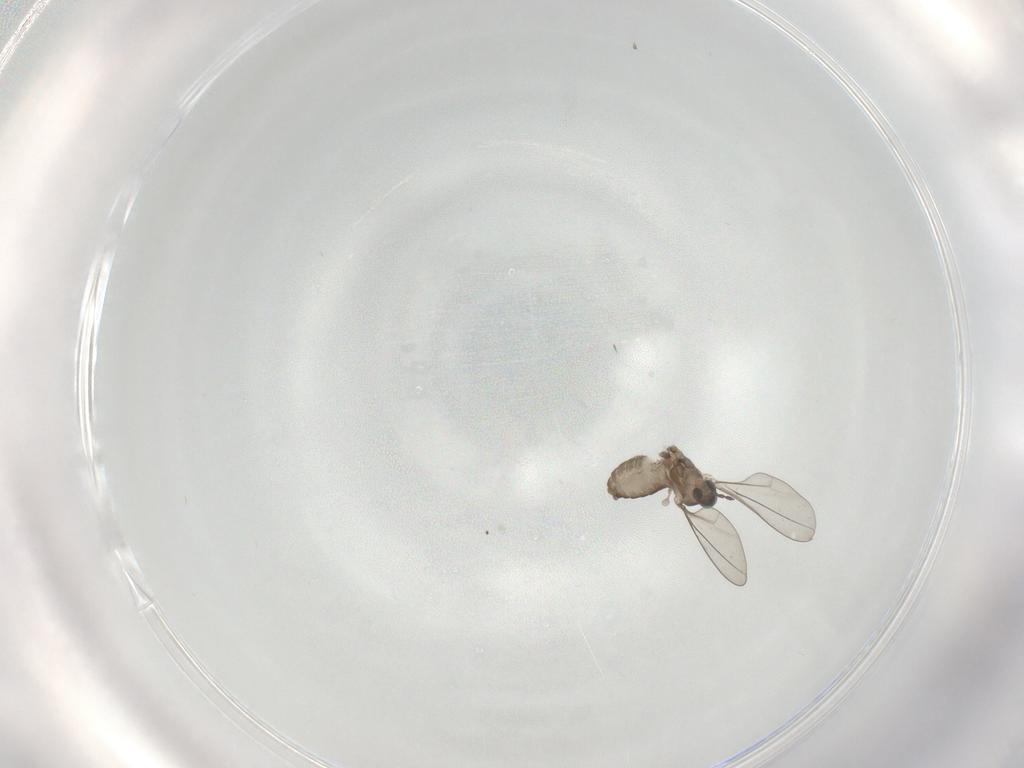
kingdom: Animalia
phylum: Arthropoda
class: Insecta
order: Diptera
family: Cecidomyiidae
